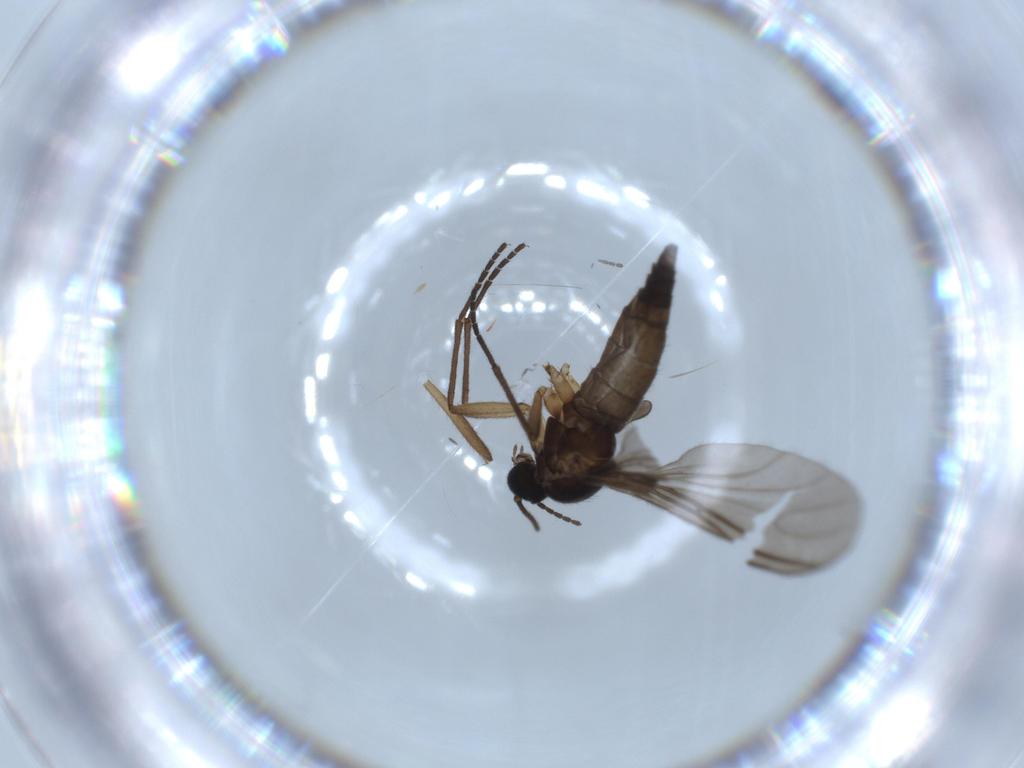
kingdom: Animalia
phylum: Arthropoda
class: Insecta
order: Diptera
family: Sciaridae
